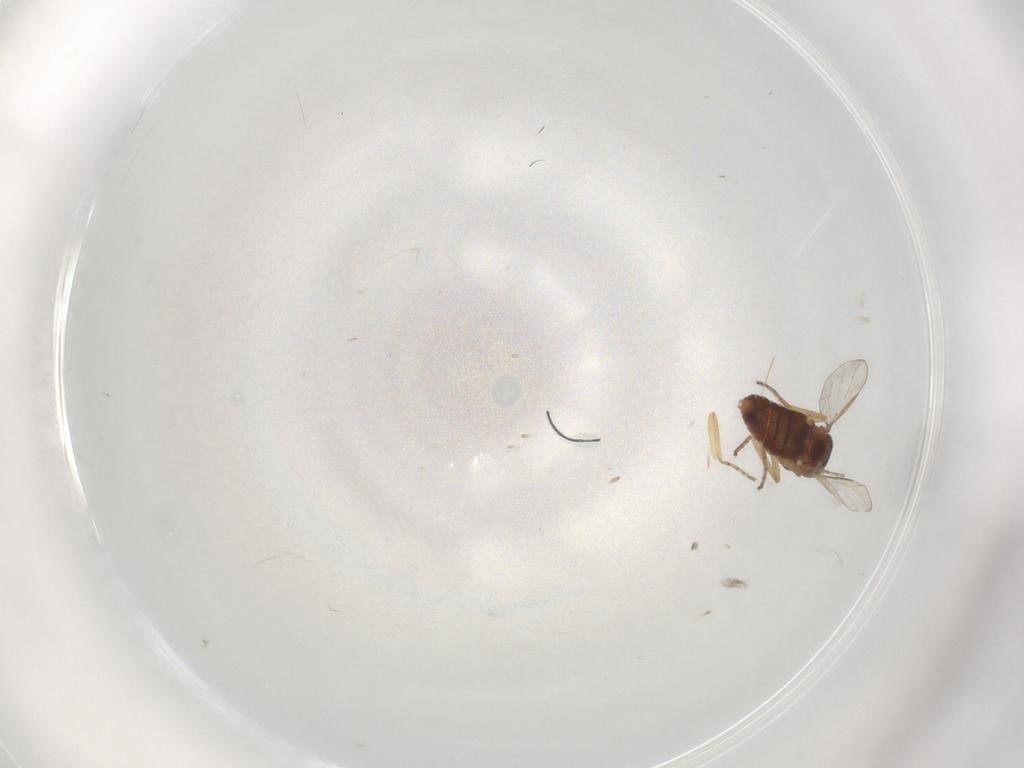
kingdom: Animalia
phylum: Arthropoda
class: Insecta
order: Diptera
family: Ceratopogonidae
